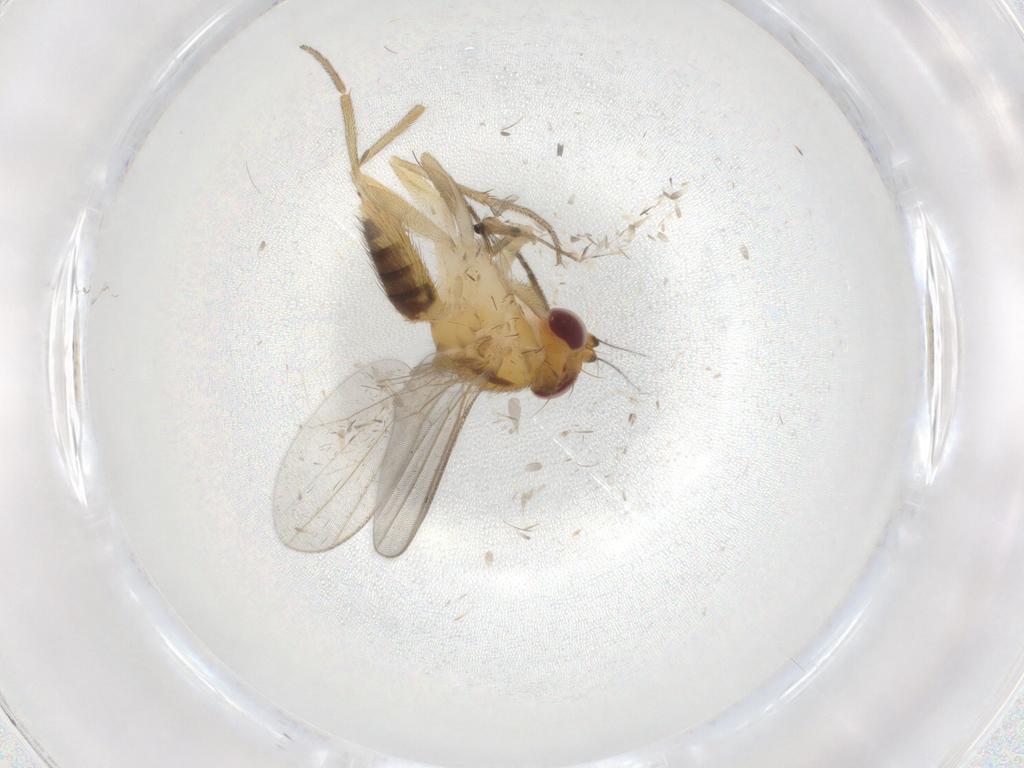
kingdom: Animalia
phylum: Arthropoda
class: Insecta
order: Diptera
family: Clusiidae
